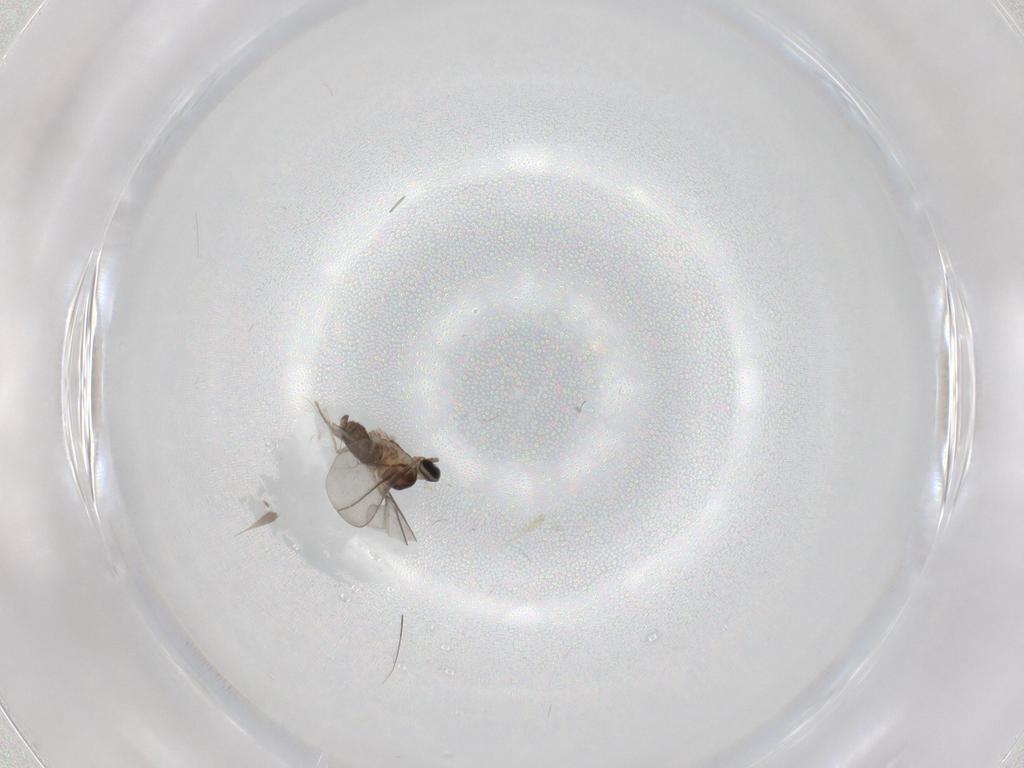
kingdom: Animalia
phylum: Arthropoda
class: Insecta
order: Diptera
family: Cecidomyiidae
